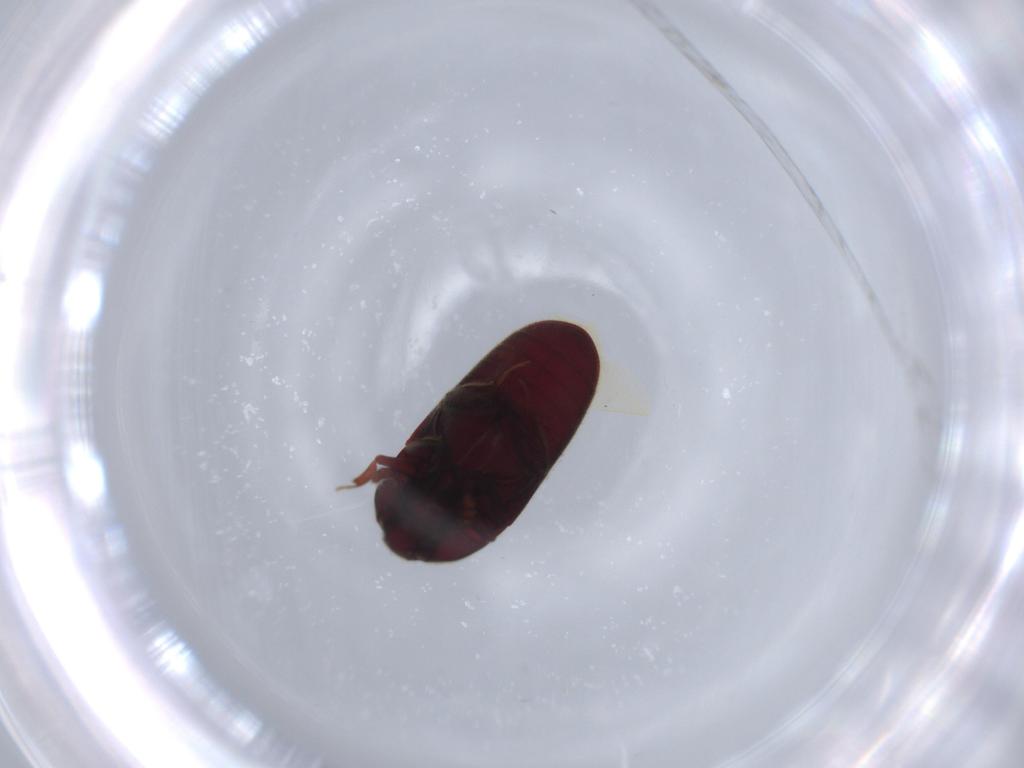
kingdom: Animalia
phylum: Arthropoda
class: Insecta
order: Coleoptera
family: Throscidae
